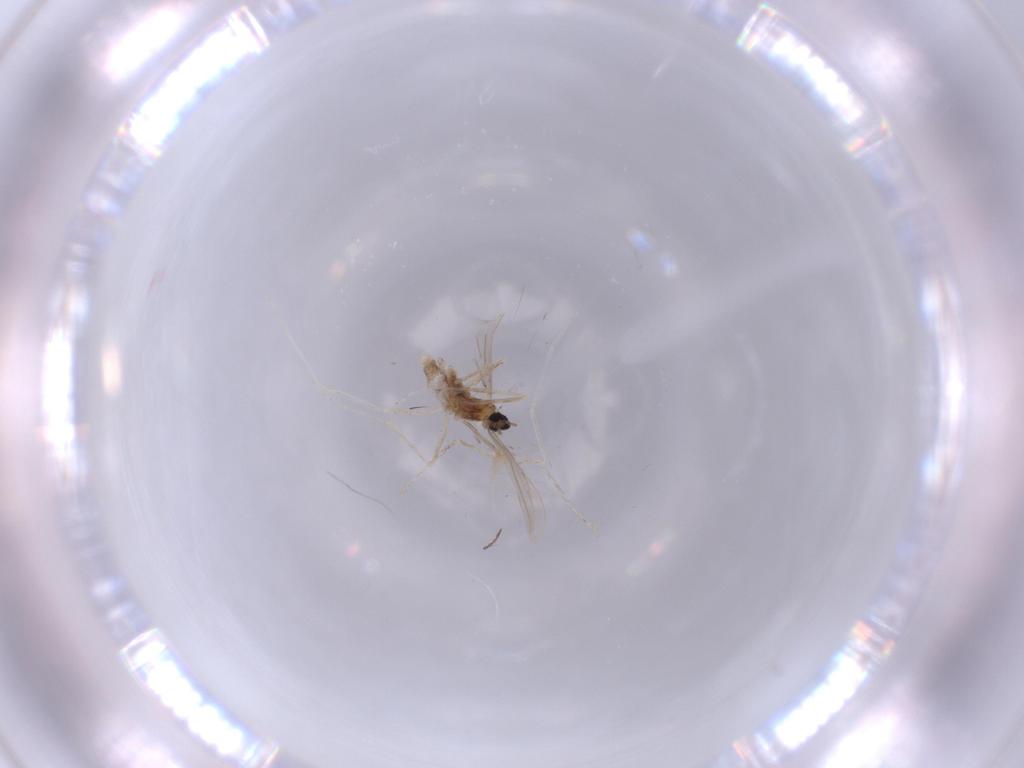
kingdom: Animalia
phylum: Arthropoda
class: Insecta
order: Diptera
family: Cecidomyiidae
